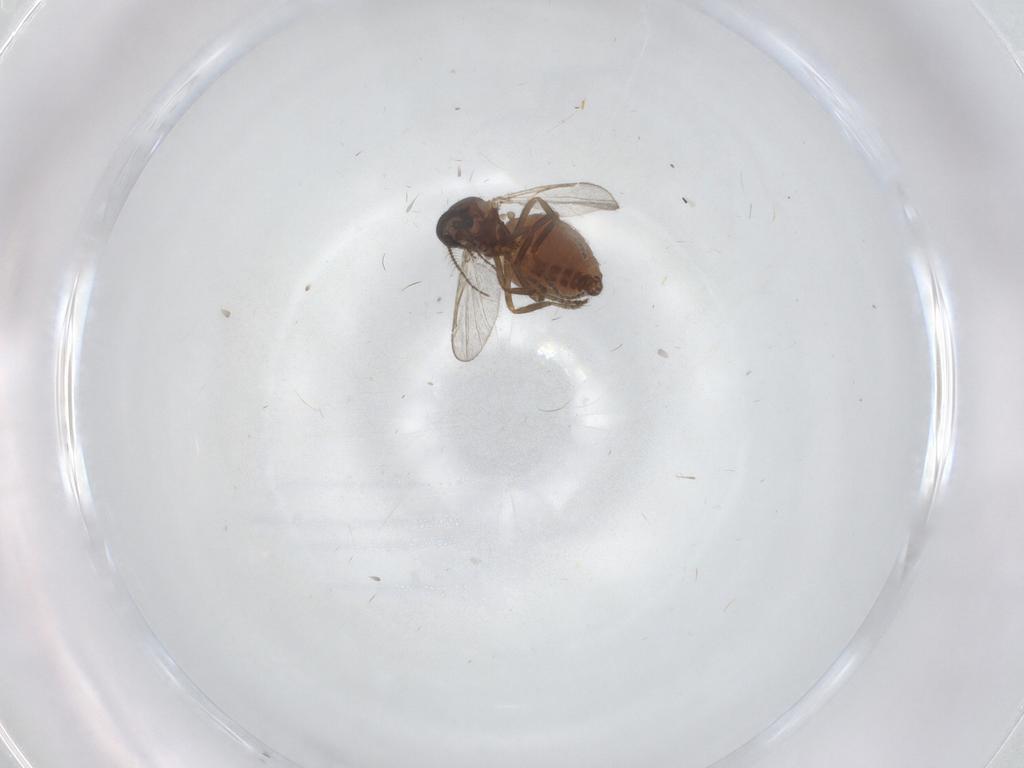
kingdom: Animalia
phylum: Arthropoda
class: Insecta
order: Diptera
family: Ceratopogonidae
